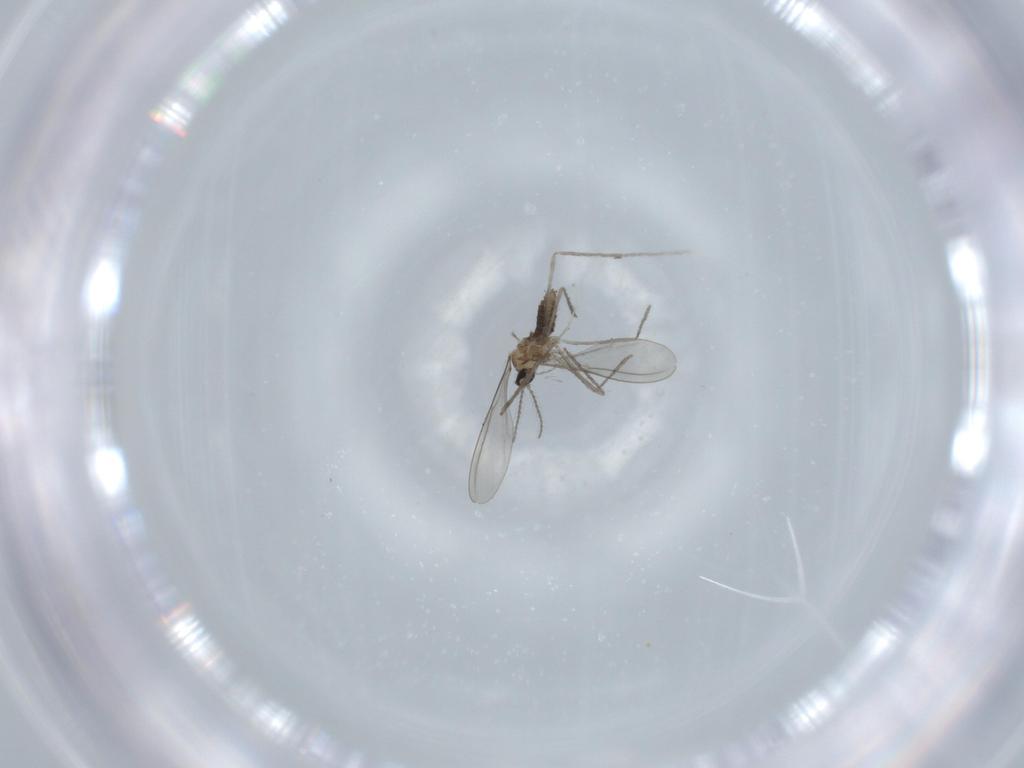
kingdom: Animalia
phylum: Arthropoda
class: Insecta
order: Diptera
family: Cecidomyiidae
